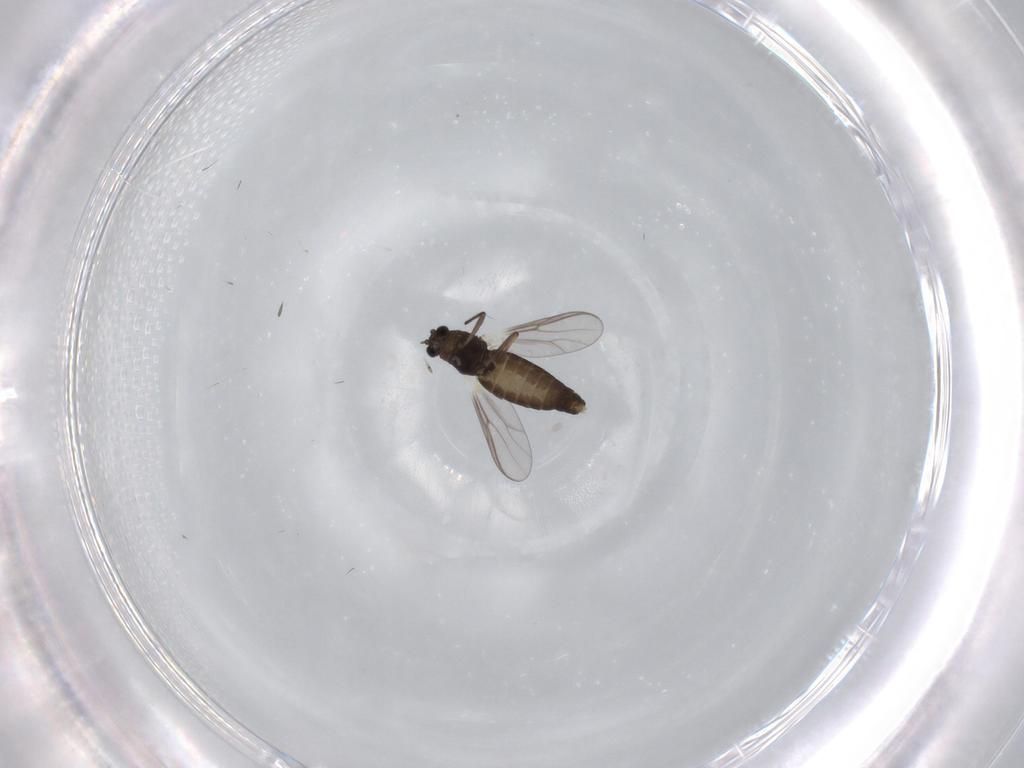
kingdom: Animalia
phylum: Arthropoda
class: Insecta
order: Diptera
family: Chironomidae
